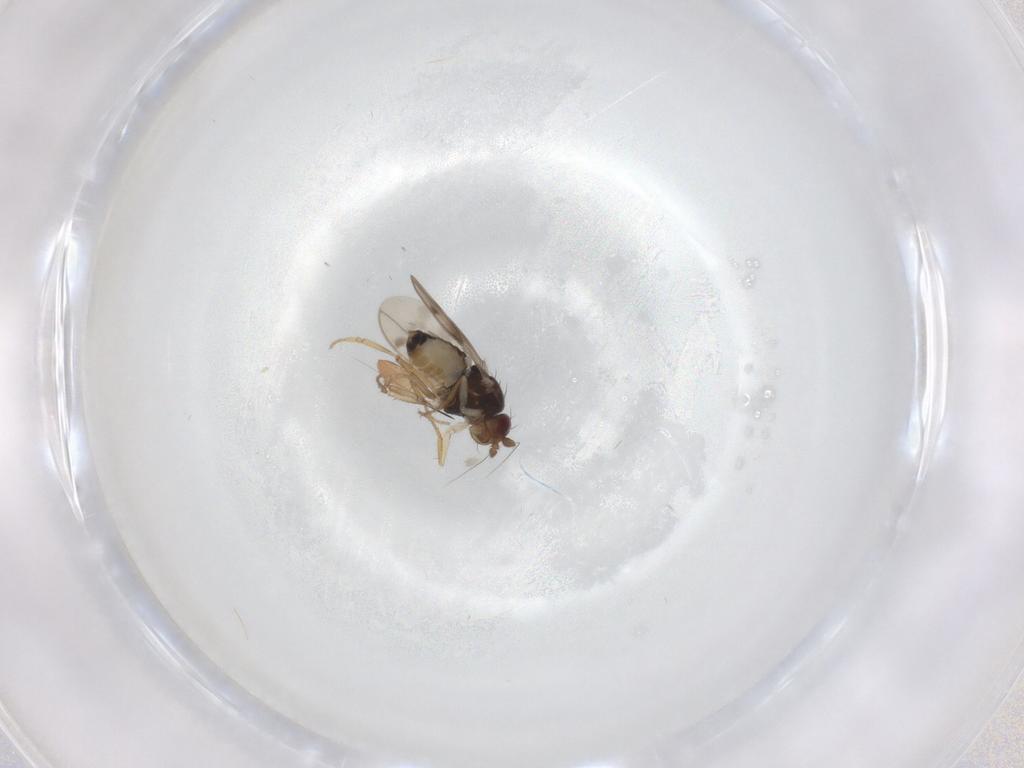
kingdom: Animalia
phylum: Arthropoda
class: Insecta
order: Diptera
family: Sphaeroceridae
